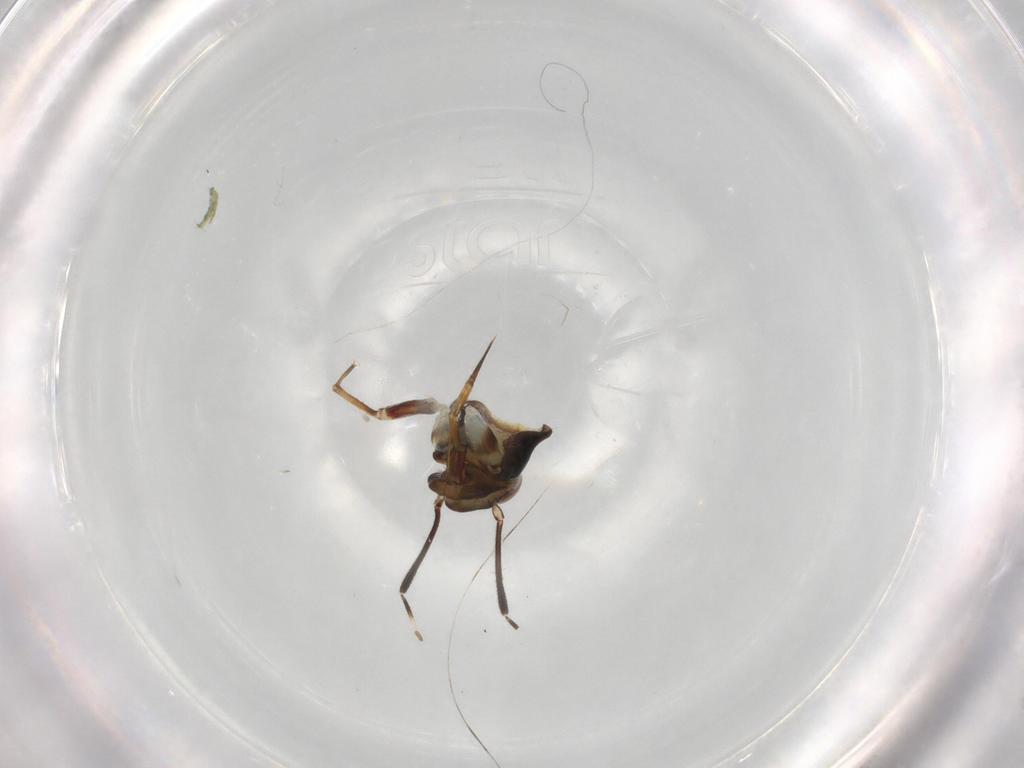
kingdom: Animalia
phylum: Arthropoda
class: Insecta
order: Hemiptera
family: Miridae
